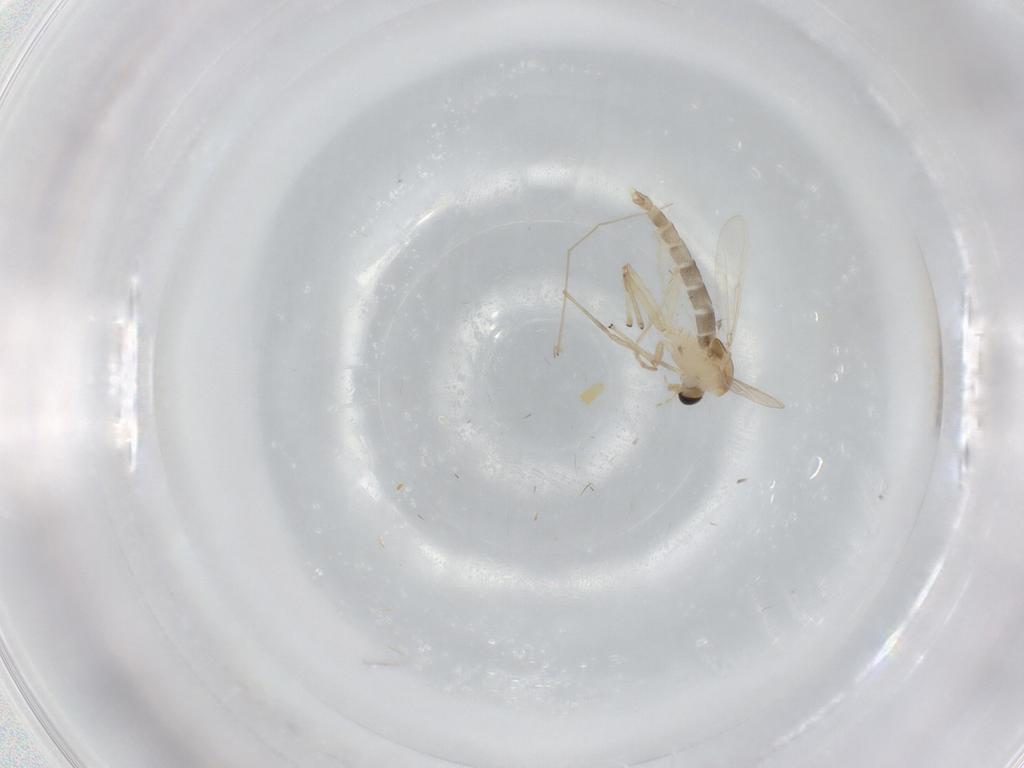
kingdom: Animalia
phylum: Arthropoda
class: Insecta
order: Diptera
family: Chironomidae
